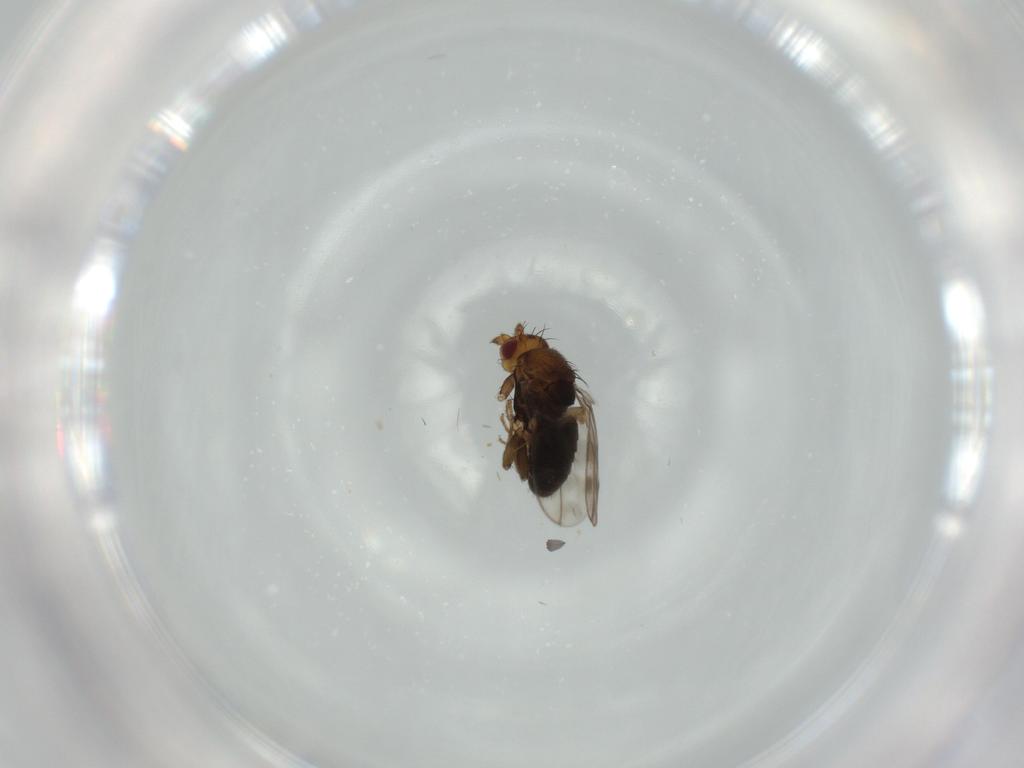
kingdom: Animalia
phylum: Arthropoda
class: Insecta
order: Diptera
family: Sphaeroceridae
